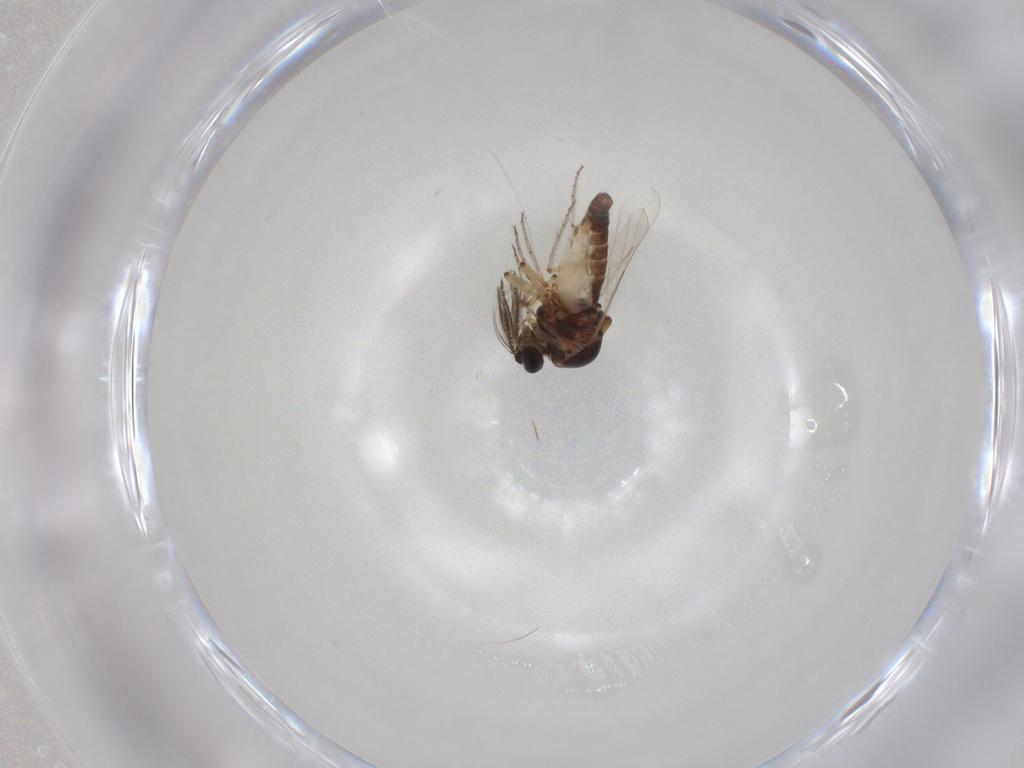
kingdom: Animalia
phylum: Arthropoda
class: Insecta
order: Diptera
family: Ceratopogonidae
